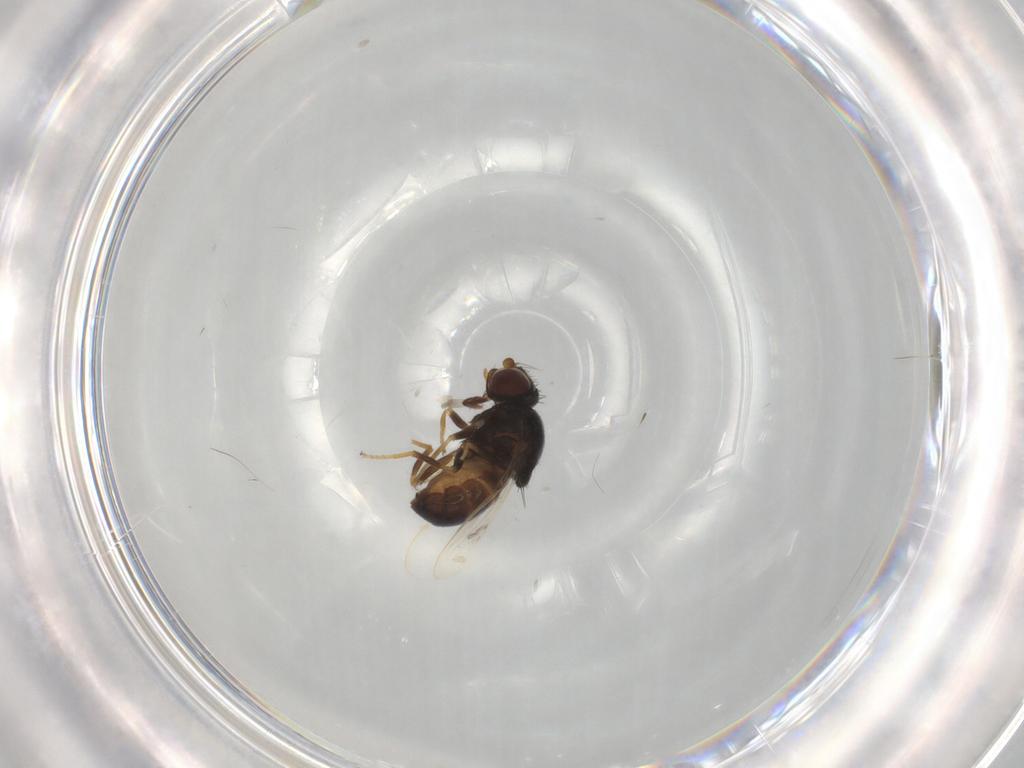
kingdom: Animalia
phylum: Arthropoda
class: Insecta
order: Diptera
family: Chloropidae
